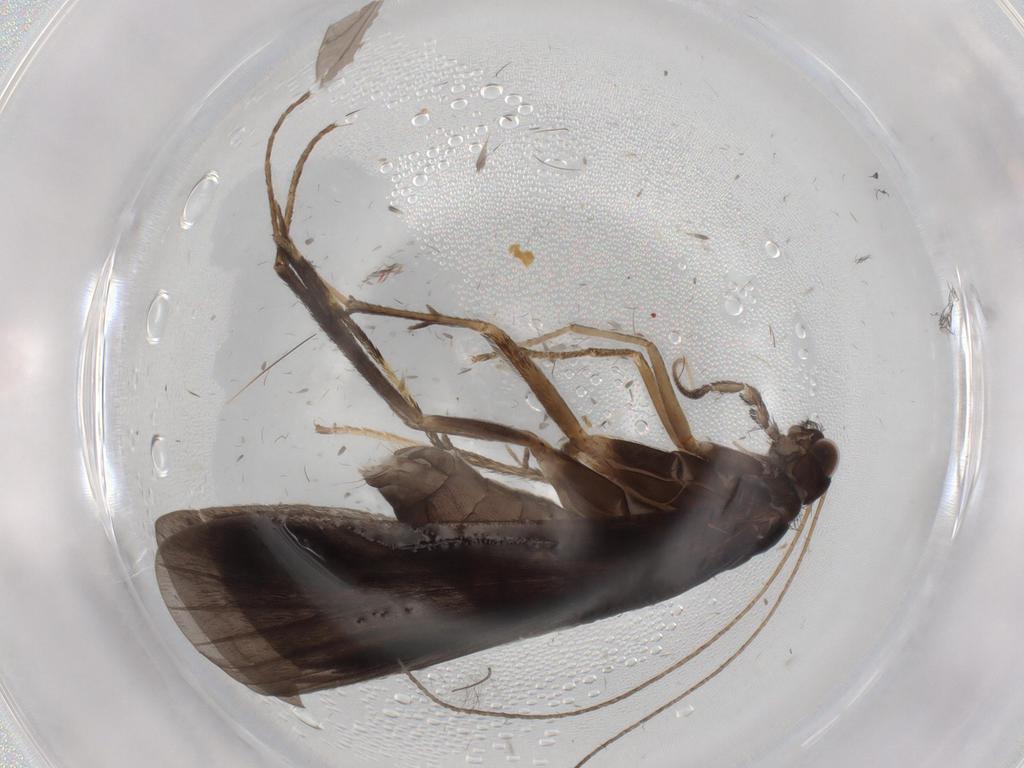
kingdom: Animalia
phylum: Arthropoda
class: Insecta
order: Trichoptera
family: Hydropsychidae
